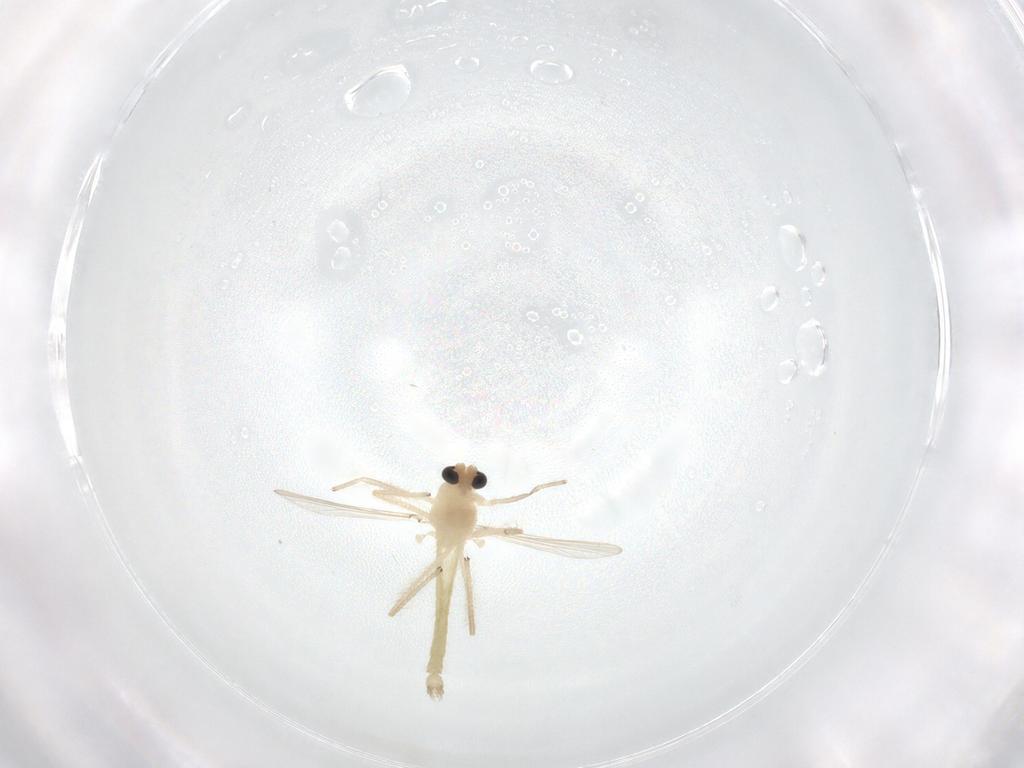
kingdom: Animalia
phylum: Arthropoda
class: Insecta
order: Diptera
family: Chironomidae
